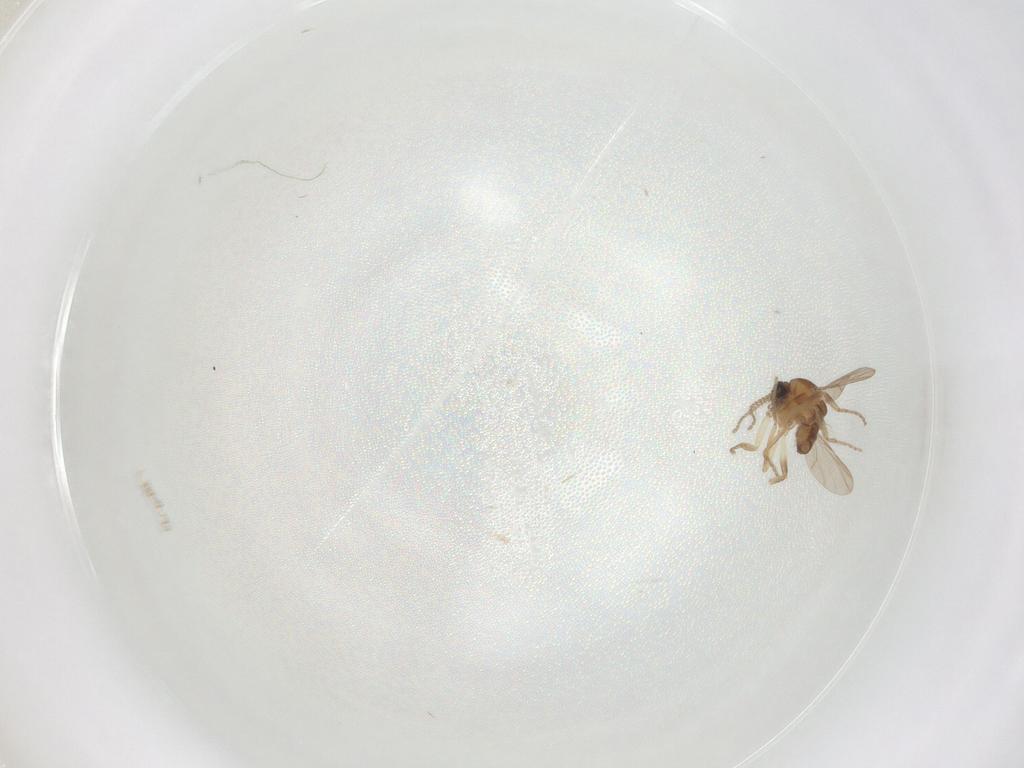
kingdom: Animalia
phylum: Arthropoda
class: Insecta
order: Diptera
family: Ceratopogonidae
